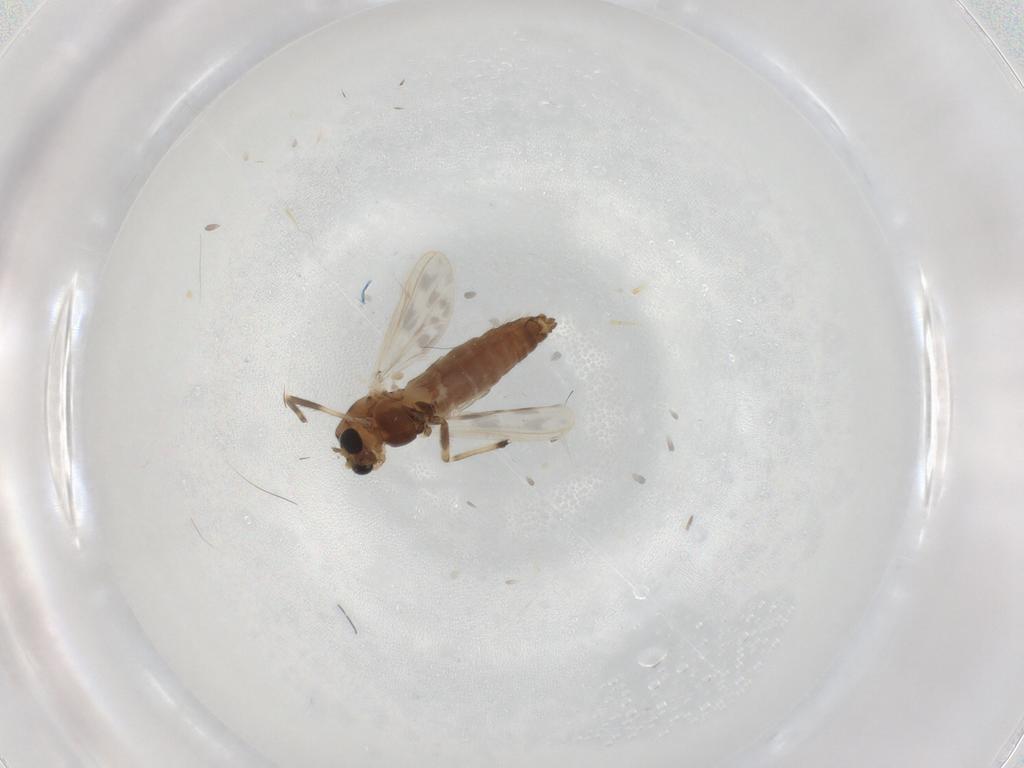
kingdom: Animalia
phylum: Arthropoda
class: Insecta
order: Diptera
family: Chironomidae
